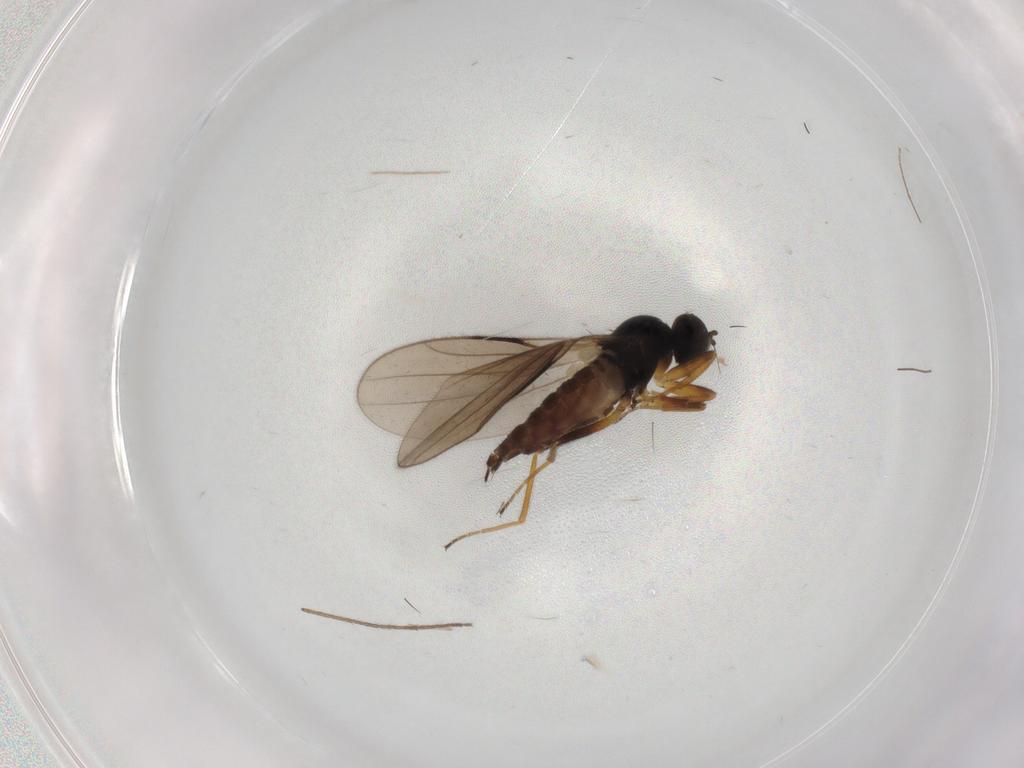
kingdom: Animalia
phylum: Arthropoda
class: Insecta
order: Diptera
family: Hybotidae
